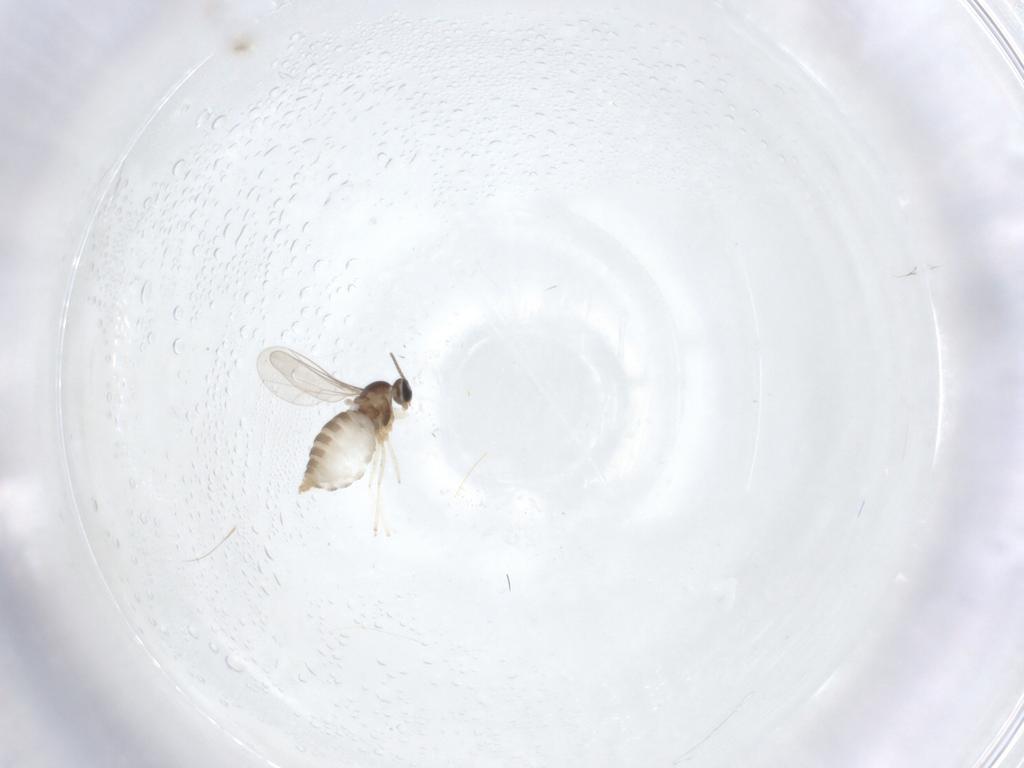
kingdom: Animalia
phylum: Arthropoda
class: Insecta
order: Diptera
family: Cecidomyiidae
